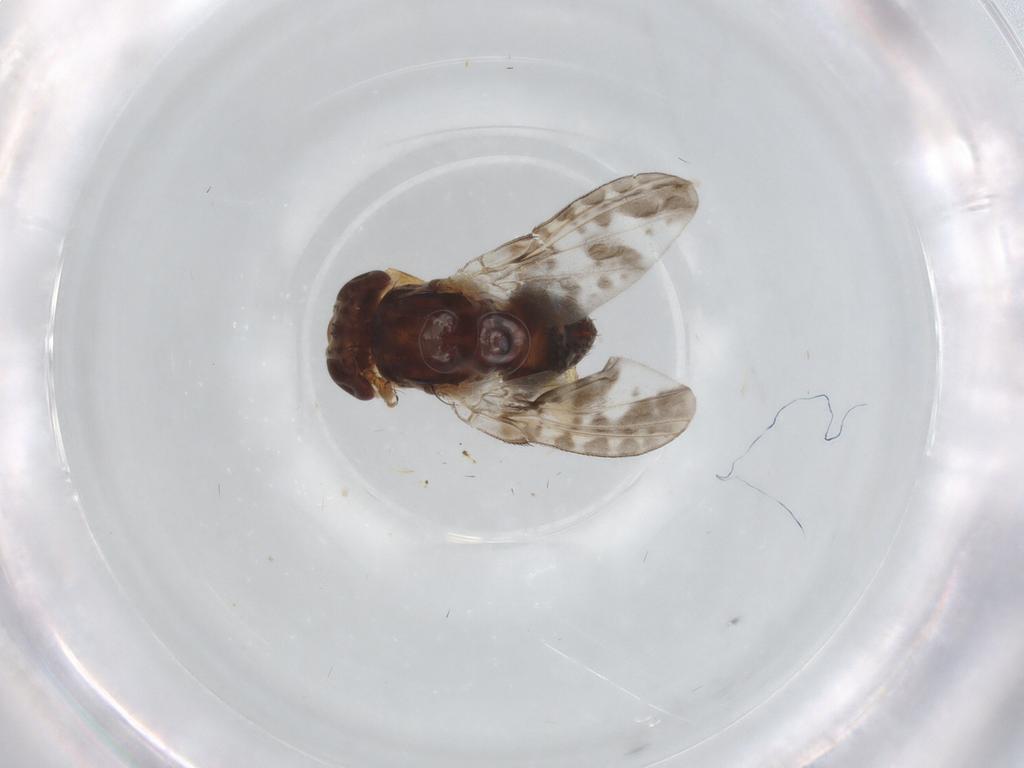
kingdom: Animalia
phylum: Arthropoda
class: Insecta
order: Diptera
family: Odiniidae
